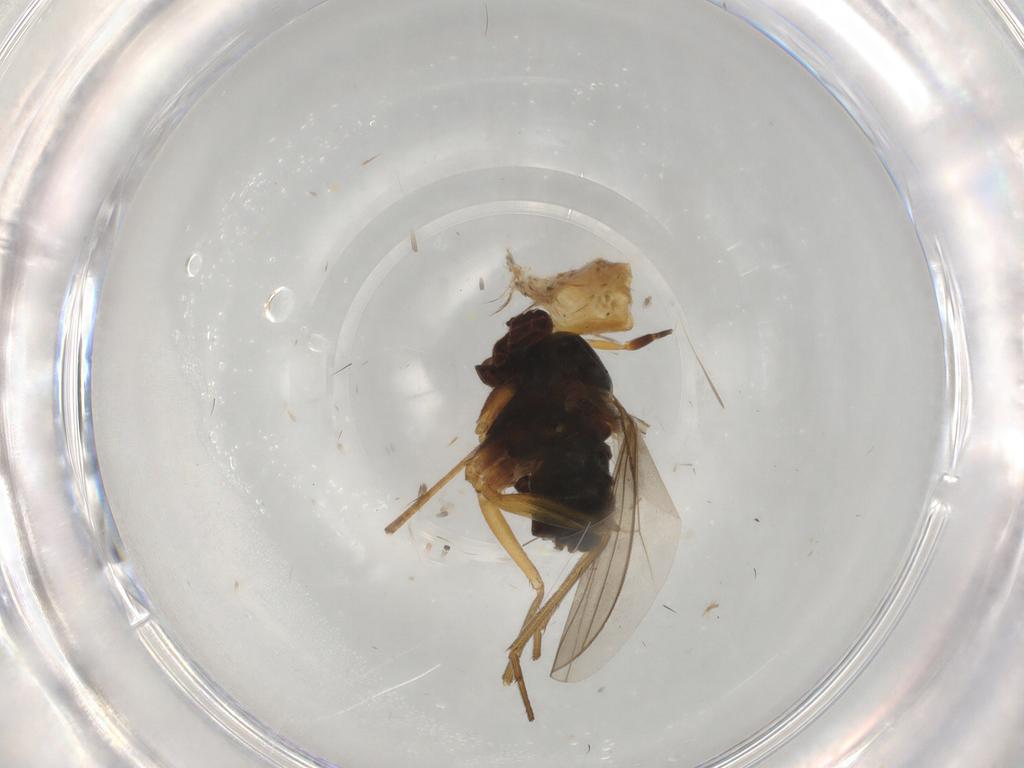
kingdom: Animalia
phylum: Arthropoda
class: Insecta
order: Diptera
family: Dolichopodidae
